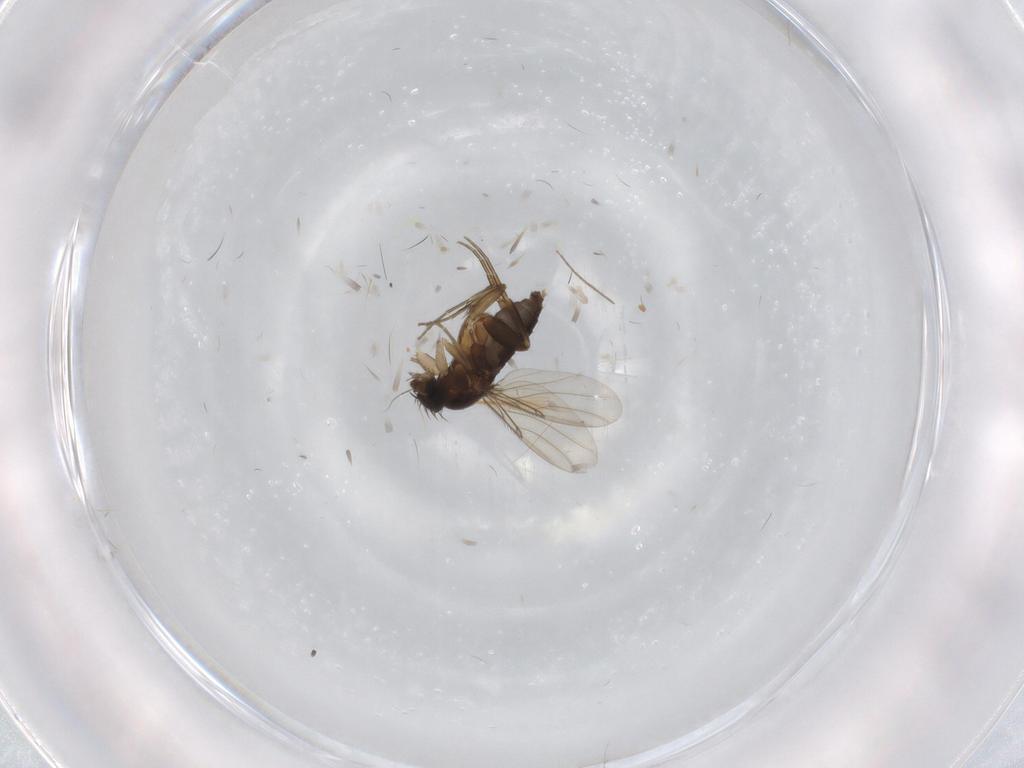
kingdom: Animalia
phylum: Arthropoda
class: Insecta
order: Diptera
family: Phoridae
